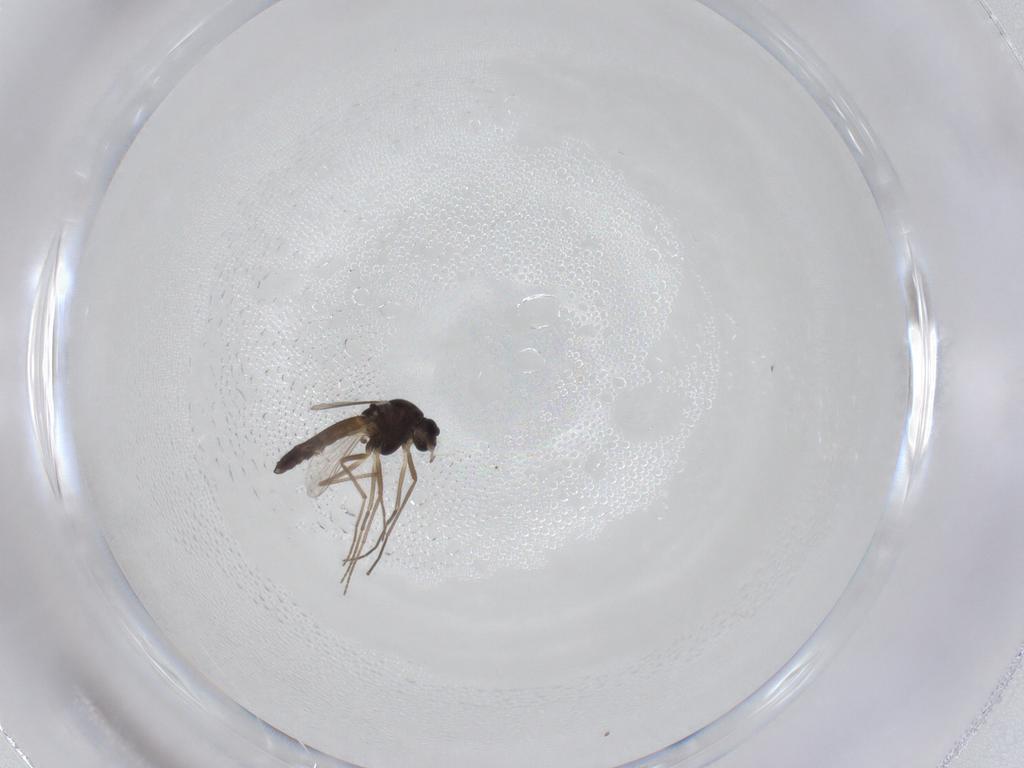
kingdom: Animalia
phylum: Arthropoda
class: Insecta
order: Diptera
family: Chironomidae
